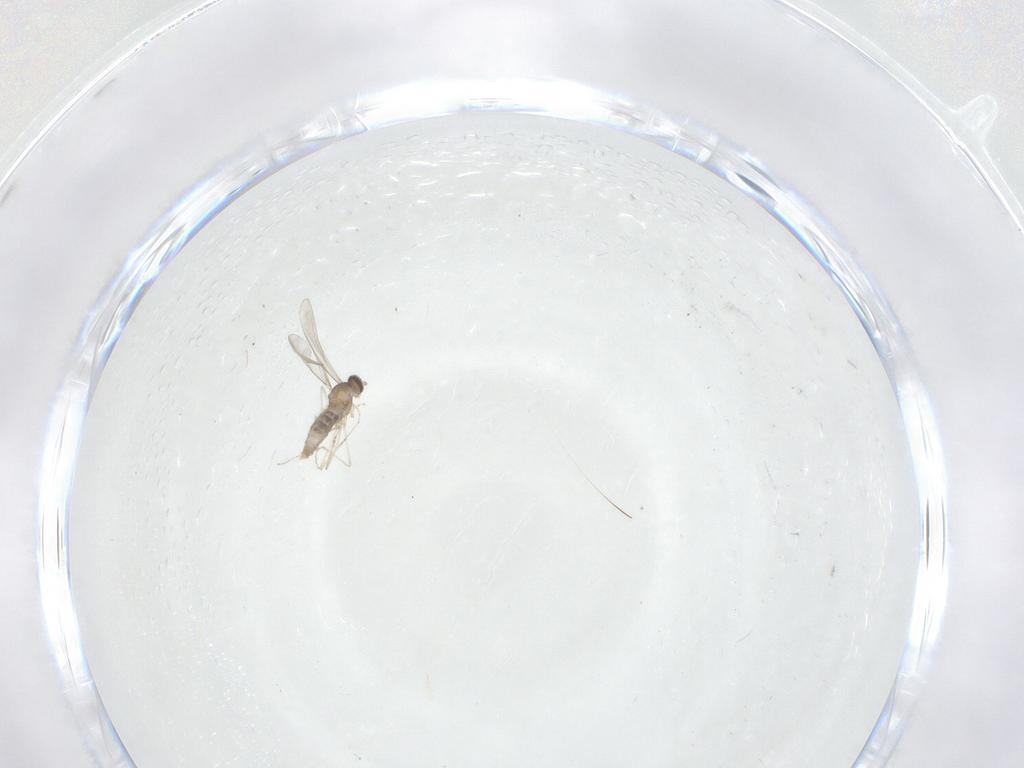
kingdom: Animalia
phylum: Arthropoda
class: Insecta
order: Diptera
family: Cecidomyiidae
